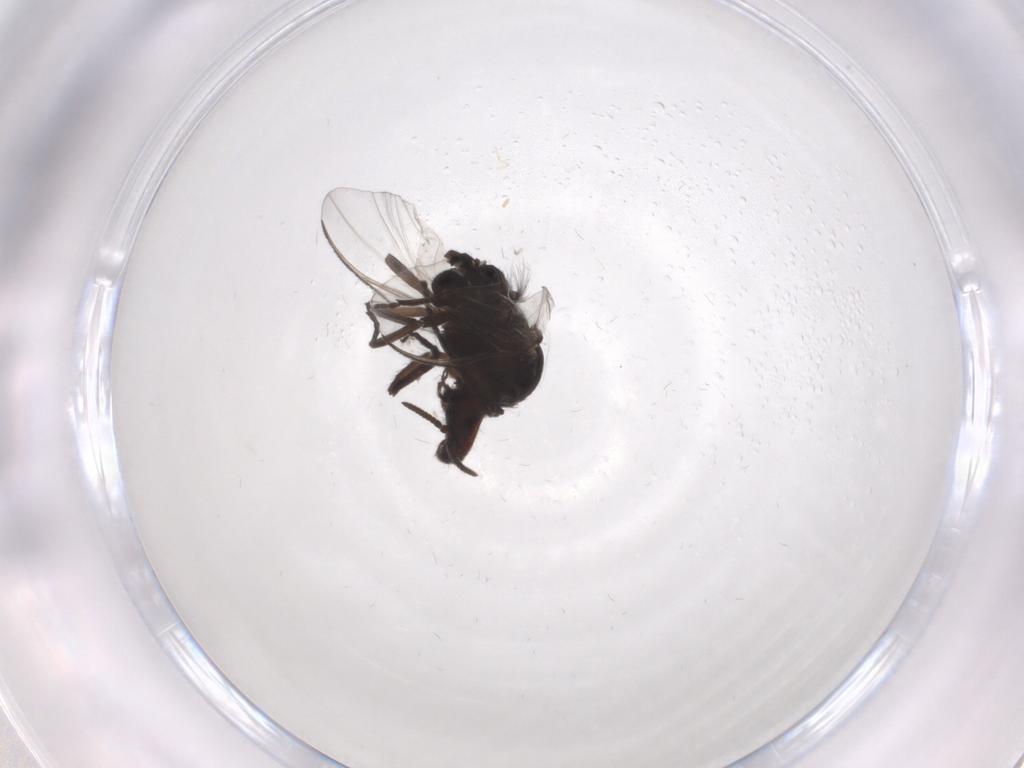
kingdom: Animalia
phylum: Arthropoda
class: Insecta
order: Diptera
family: Simuliidae
